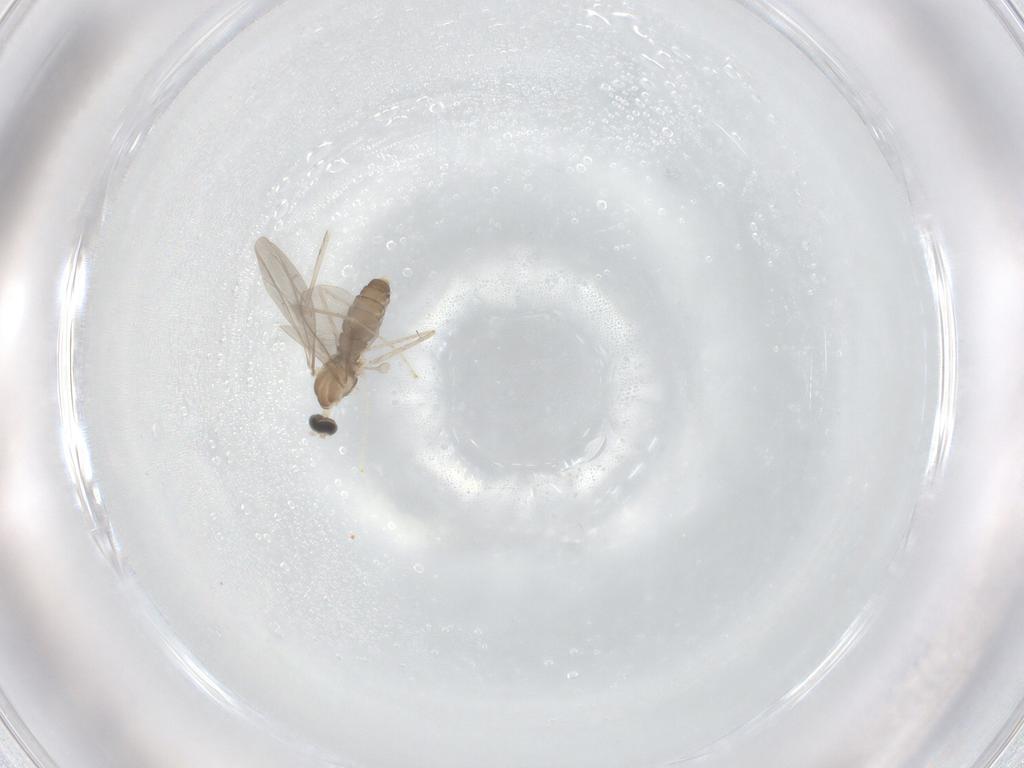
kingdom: Animalia
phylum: Arthropoda
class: Insecta
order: Diptera
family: Cecidomyiidae
